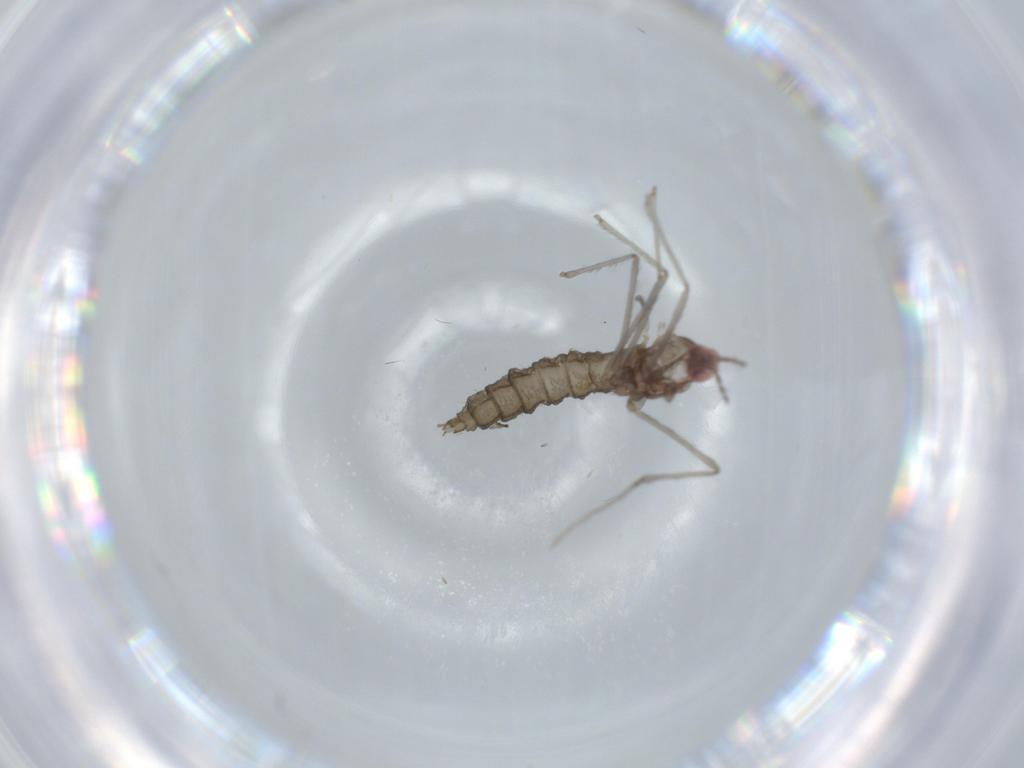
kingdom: Animalia
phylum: Arthropoda
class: Insecta
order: Diptera
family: Cecidomyiidae
